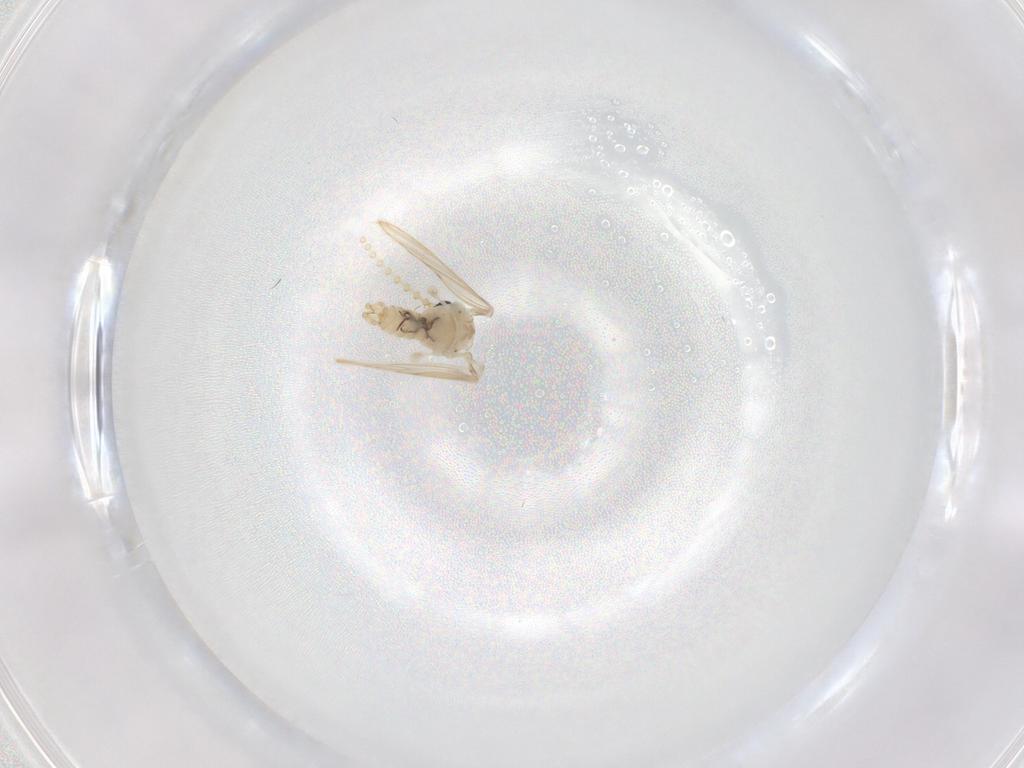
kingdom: Animalia
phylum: Arthropoda
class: Insecta
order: Diptera
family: Psychodidae
